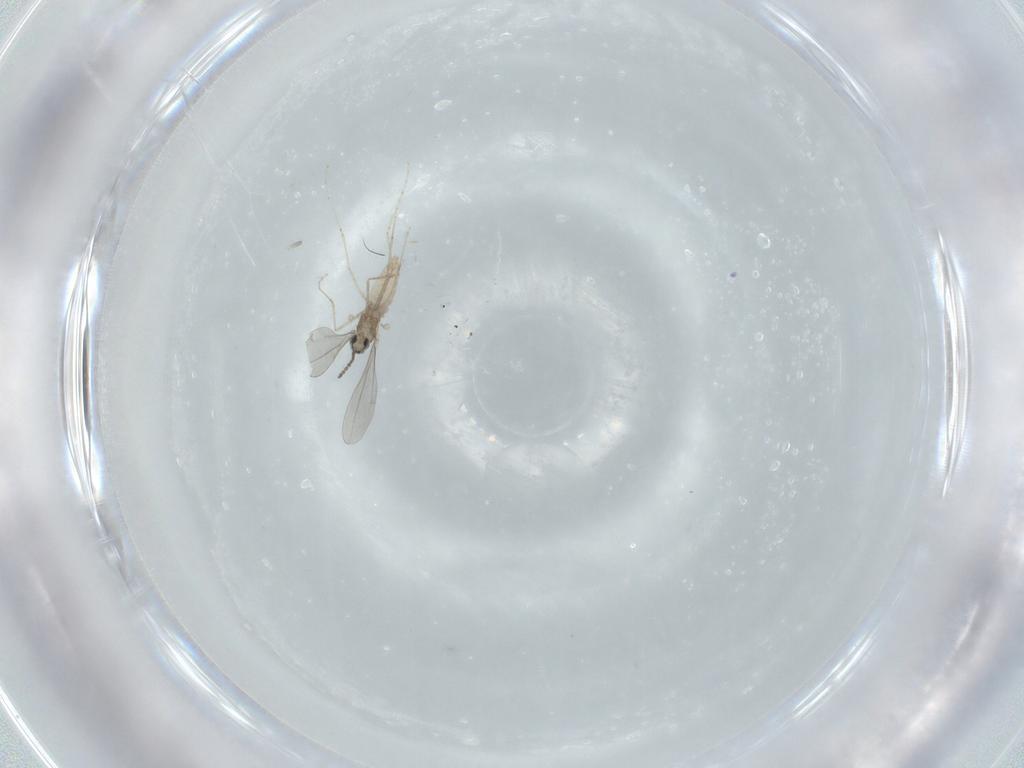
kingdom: Animalia
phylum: Arthropoda
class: Insecta
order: Diptera
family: Cecidomyiidae
